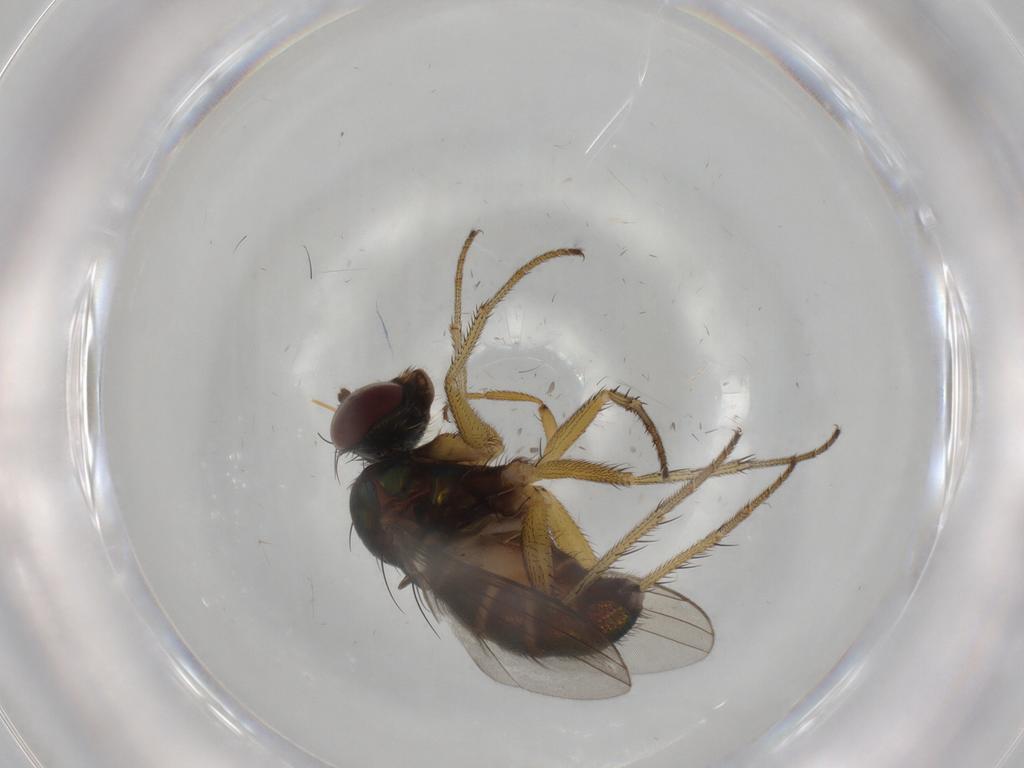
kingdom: Animalia
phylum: Arthropoda
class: Insecta
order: Diptera
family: Dolichopodidae
